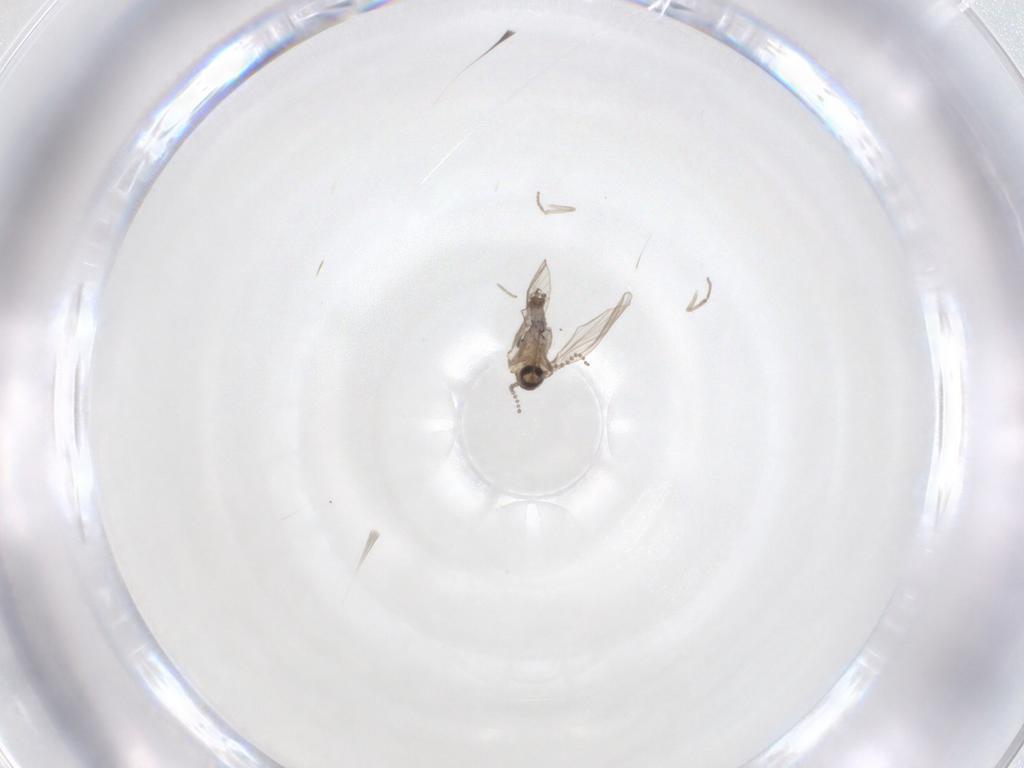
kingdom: Animalia
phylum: Arthropoda
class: Insecta
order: Diptera
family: Psychodidae
